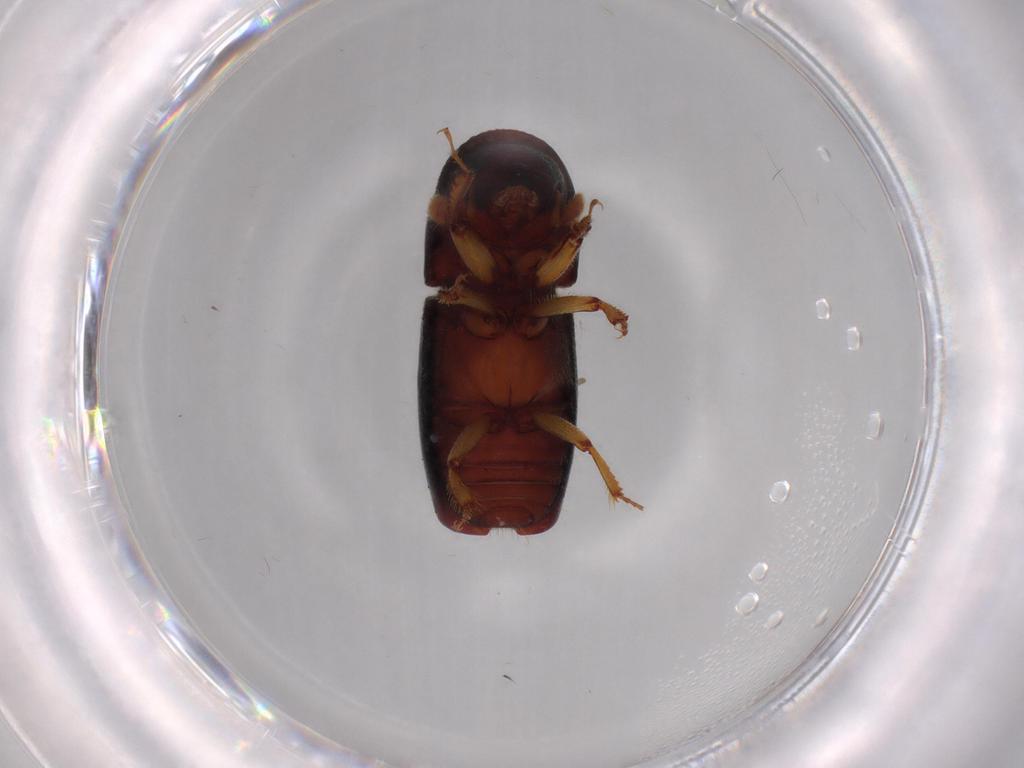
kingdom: Animalia
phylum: Arthropoda
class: Insecta
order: Coleoptera
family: Curculionidae
